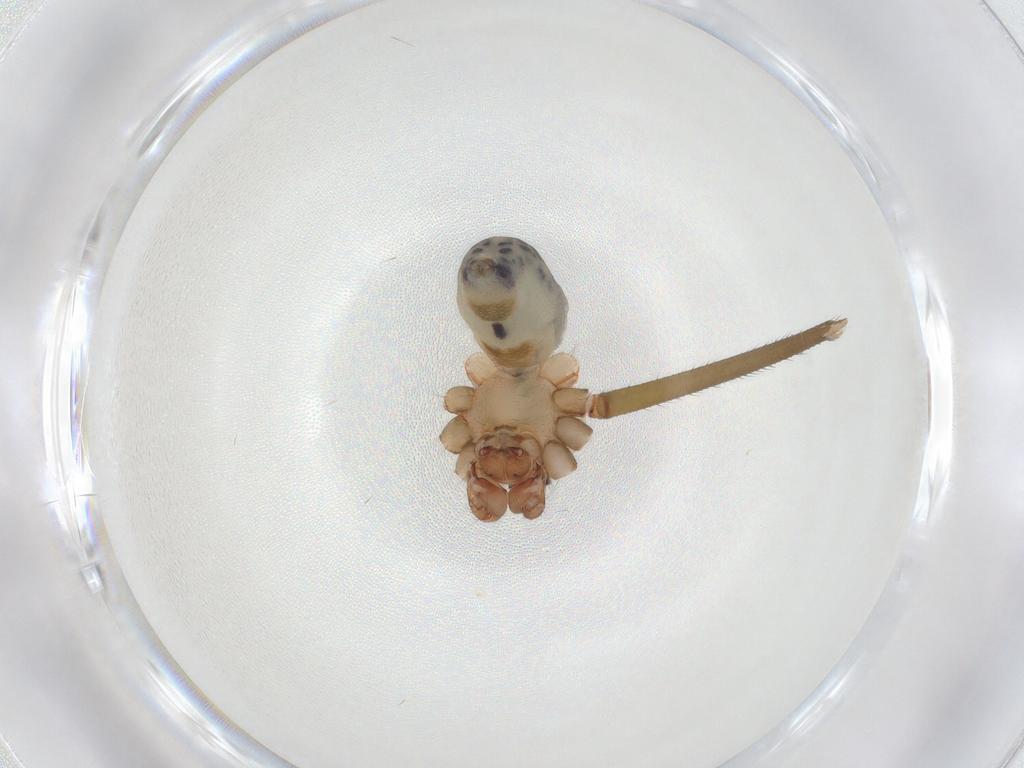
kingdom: Animalia
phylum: Arthropoda
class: Arachnida
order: Araneae
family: Pholcidae
